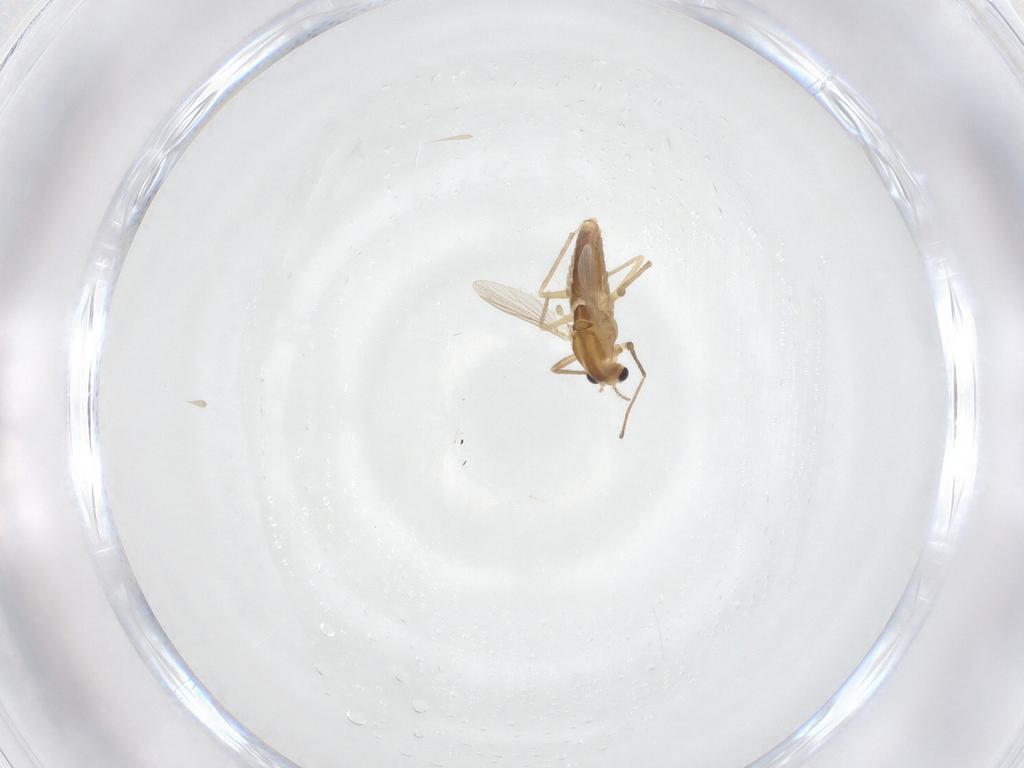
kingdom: Animalia
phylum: Arthropoda
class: Insecta
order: Diptera
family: Chironomidae
